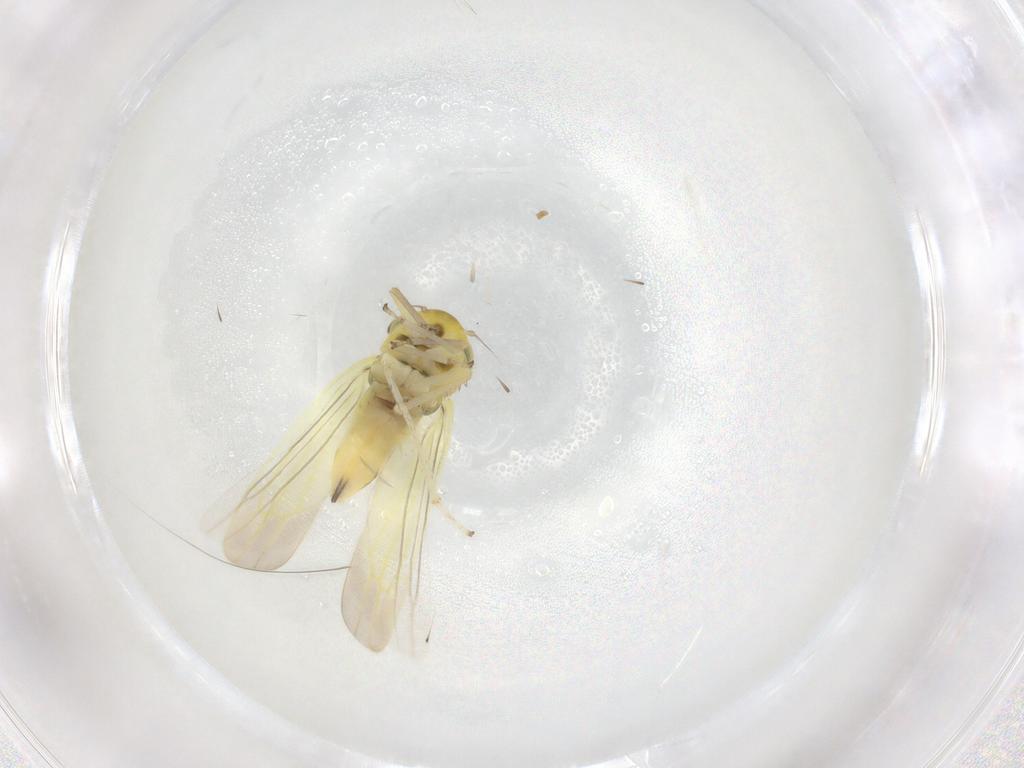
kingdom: Animalia
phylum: Arthropoda
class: Insecta
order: Hemiptera
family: Cicadellidae
